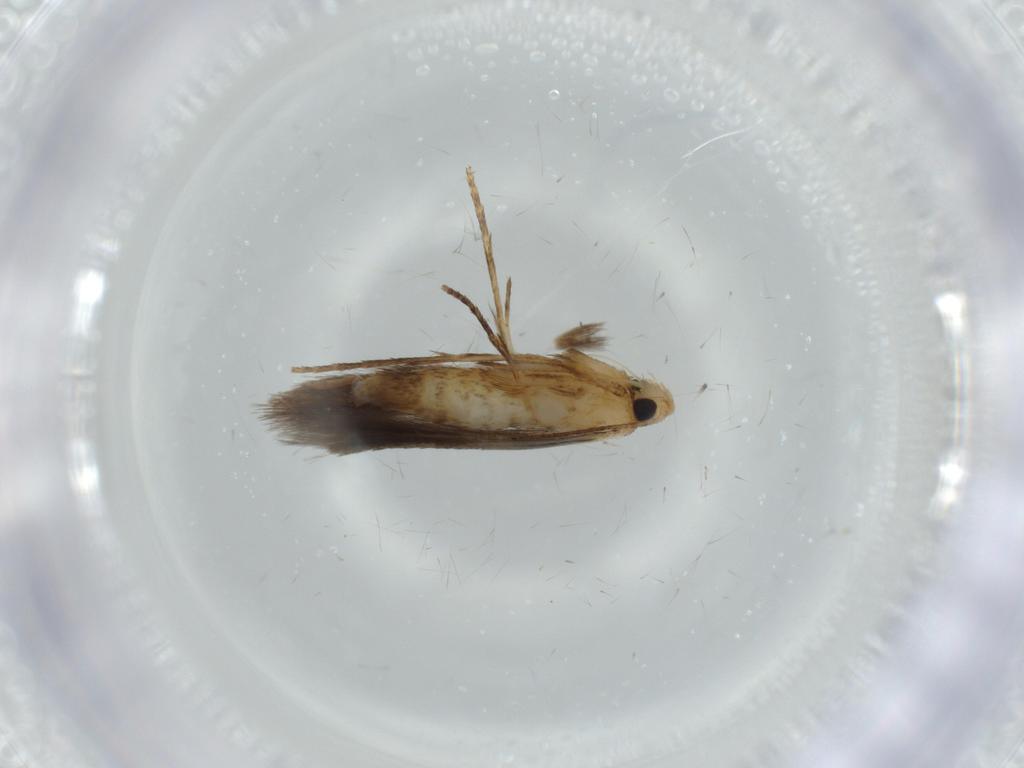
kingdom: Animalia
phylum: Arthropoda
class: Insecta
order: Lepidoptera
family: Tischeriidae
